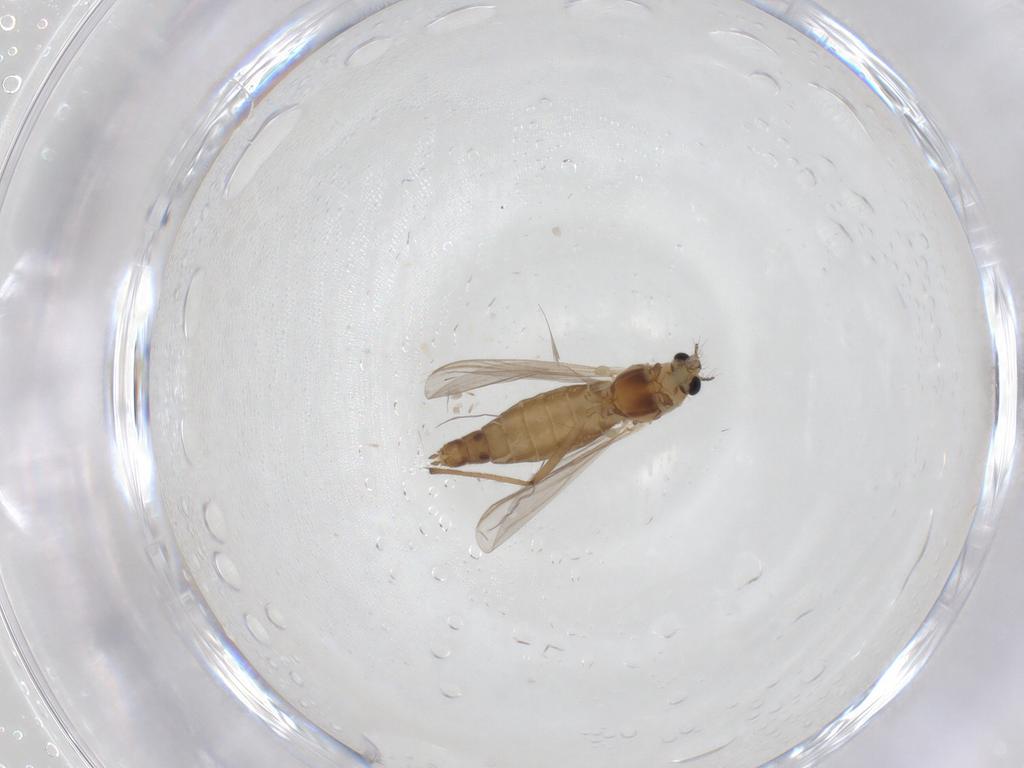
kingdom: Animalia
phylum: Arthropoda
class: Insecta
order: Diptera
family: Chironomidae
